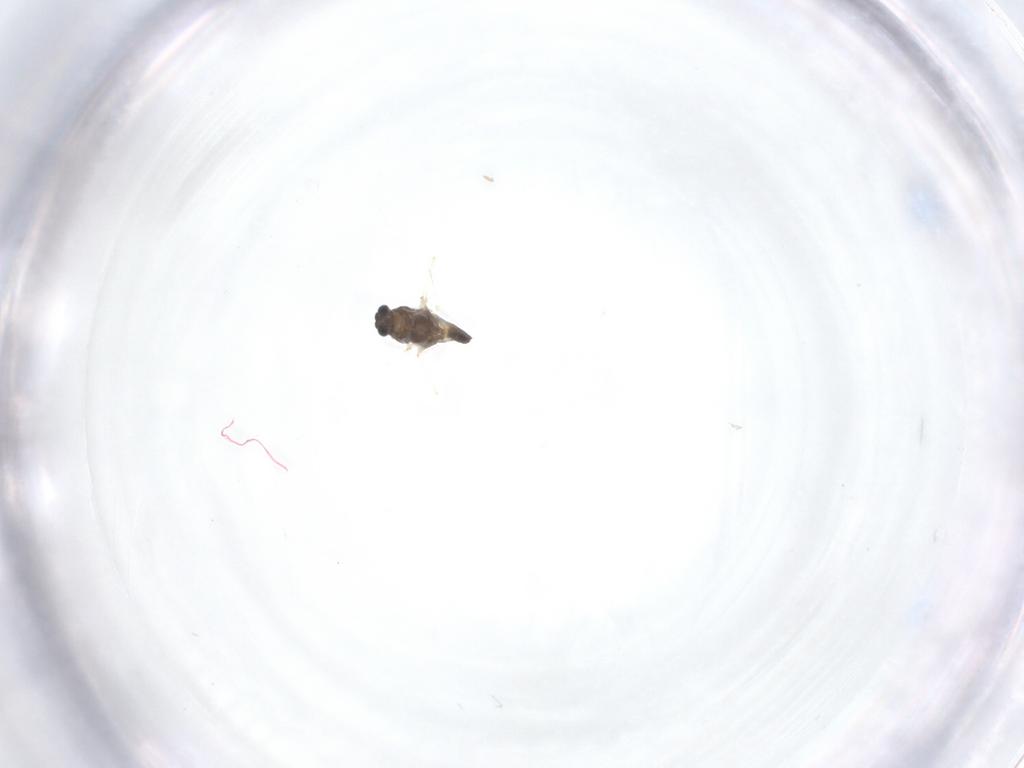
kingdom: Animalia
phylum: Arthropoda
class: Insecta
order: Diptera
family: Chironomidae
